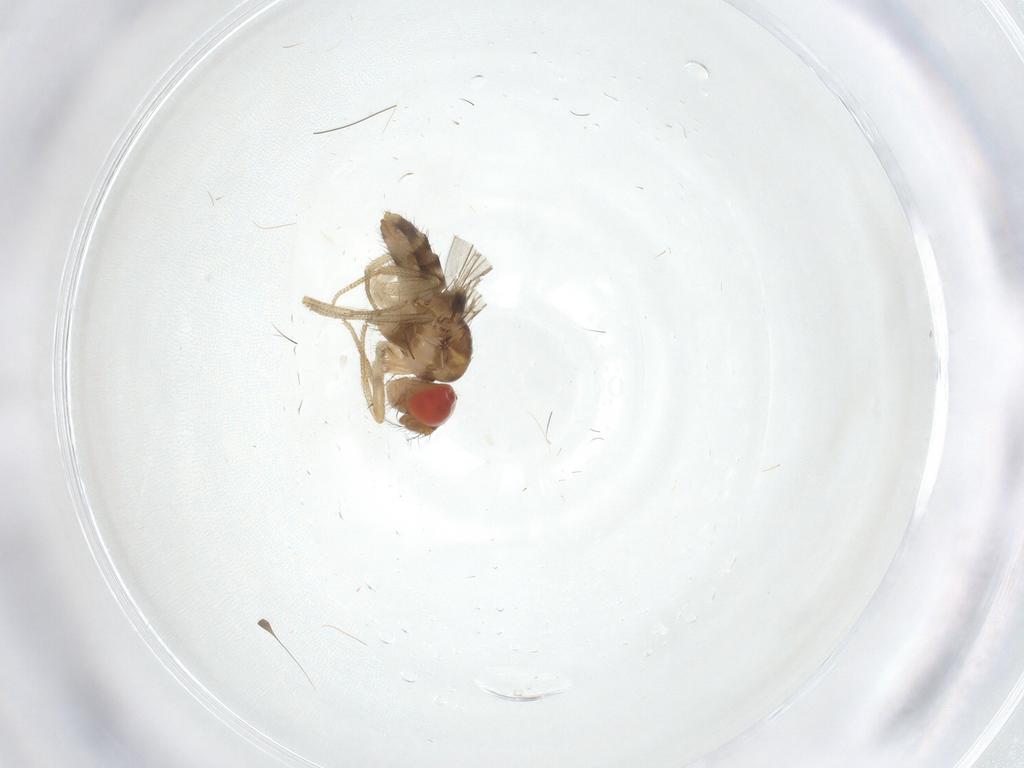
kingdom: Animalia
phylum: Arthropoda
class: Insecta
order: Diptera
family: Drosophilidae
